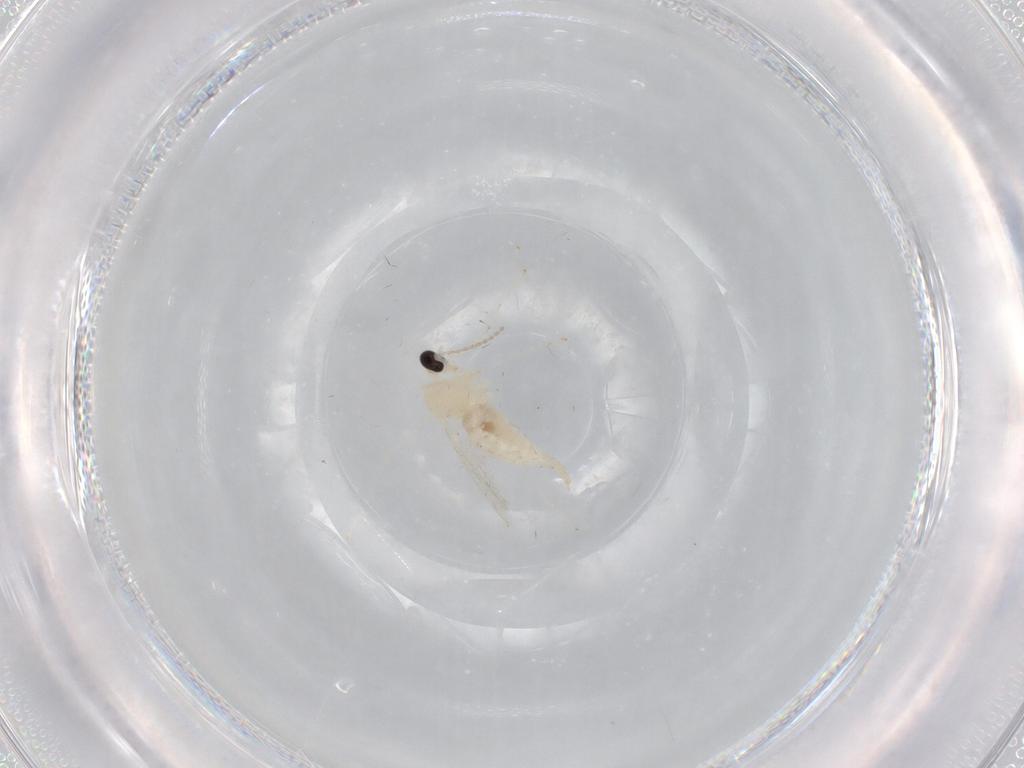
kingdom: Animalia
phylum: Arthropoda
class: Insecta
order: Diptera
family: Cecidomyiidae
